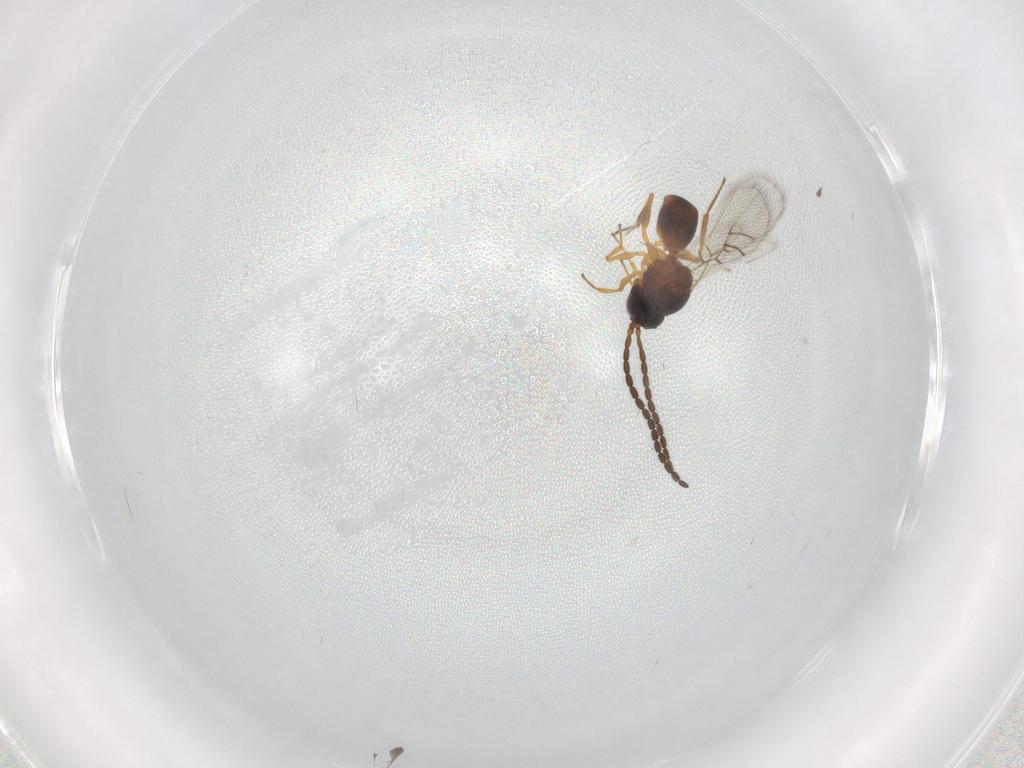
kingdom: Animalia
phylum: Arthropoda
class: Insecta
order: Hymenoptera
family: Figitidae
